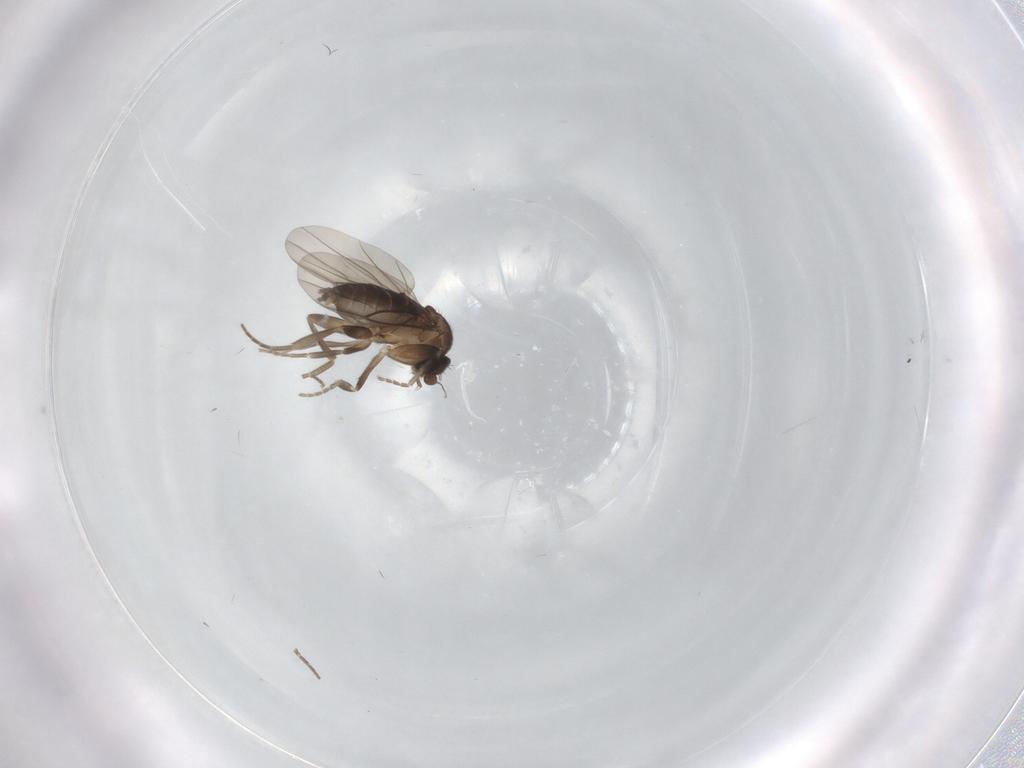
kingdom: Animalia
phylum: Arthropoda
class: Insecta
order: Diptera
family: Phoridae
